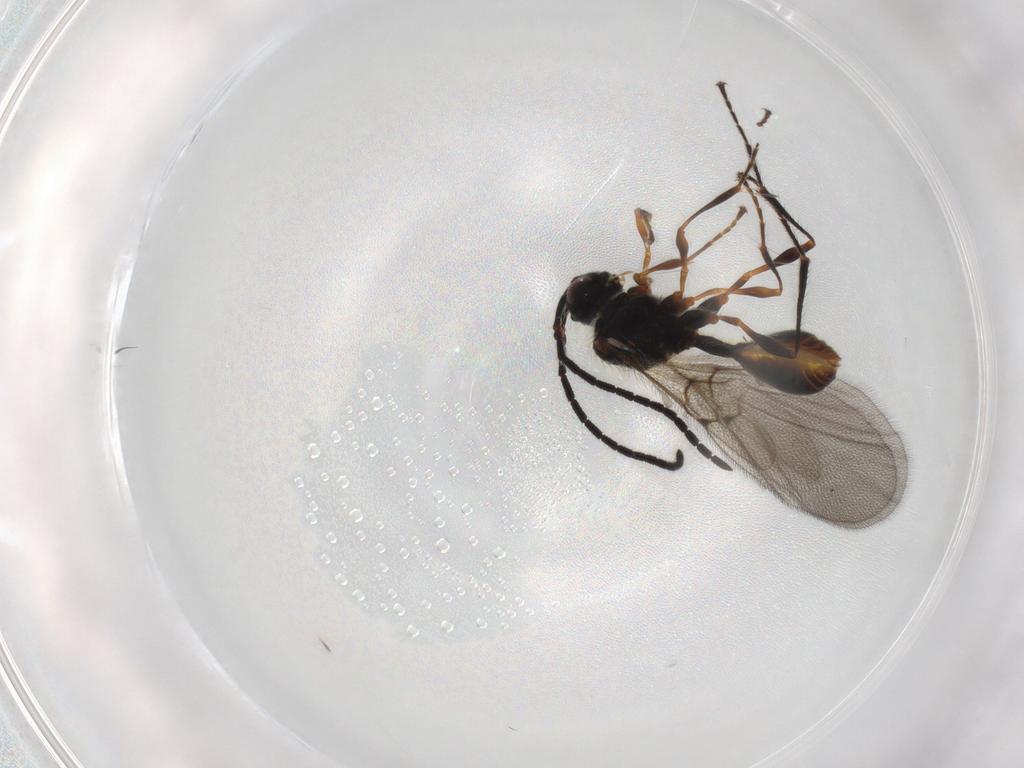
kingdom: Animalia
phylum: Arthropoda
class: Insecta
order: Hymenoptera
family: Diapriidae
